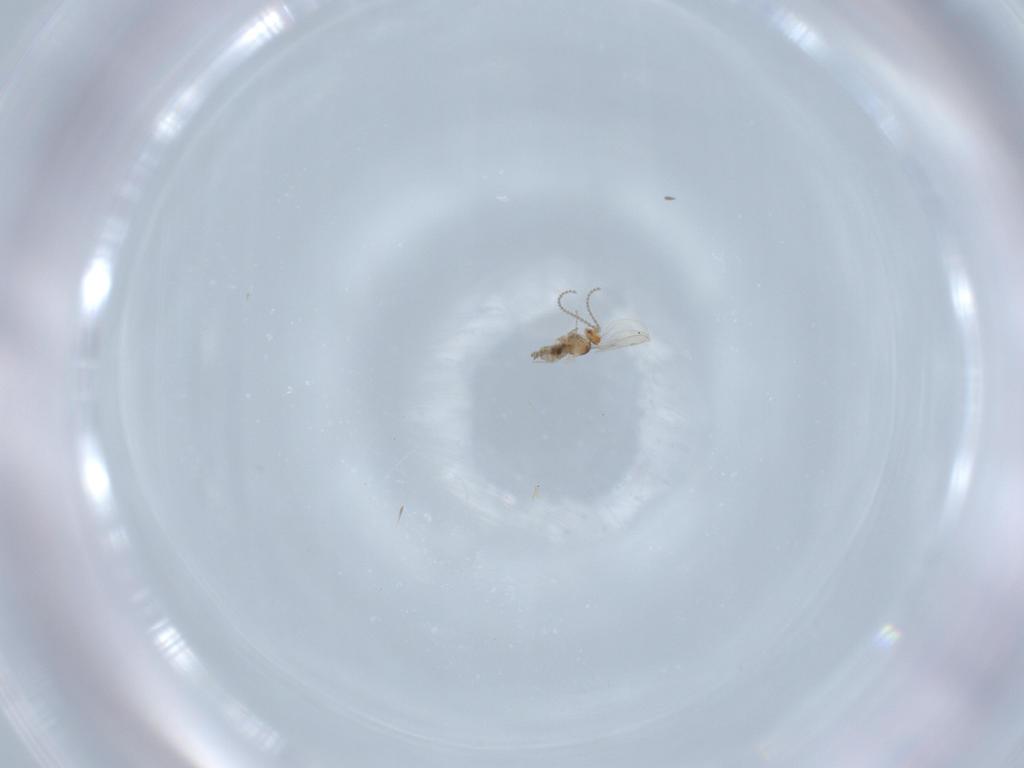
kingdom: Animalia
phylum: Arthropoda
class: Insecta
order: Diptera
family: Cecidomyiidae
